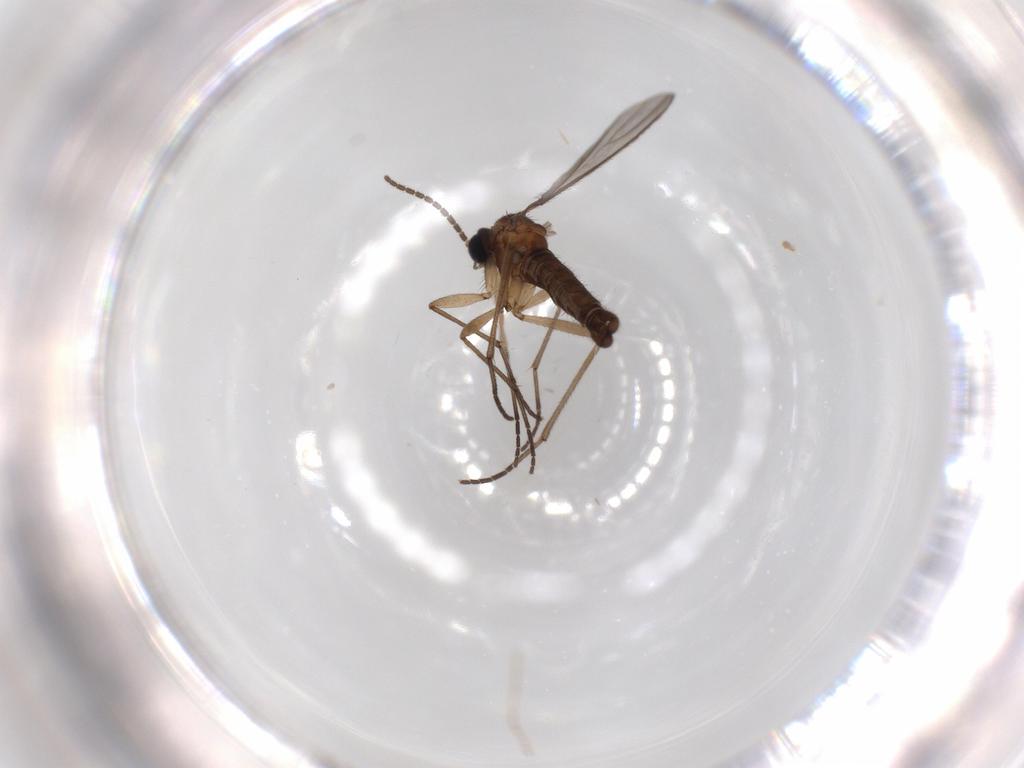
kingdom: Animalia
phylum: Arthropoda
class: Insecta
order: Diptera
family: Sciaridae
